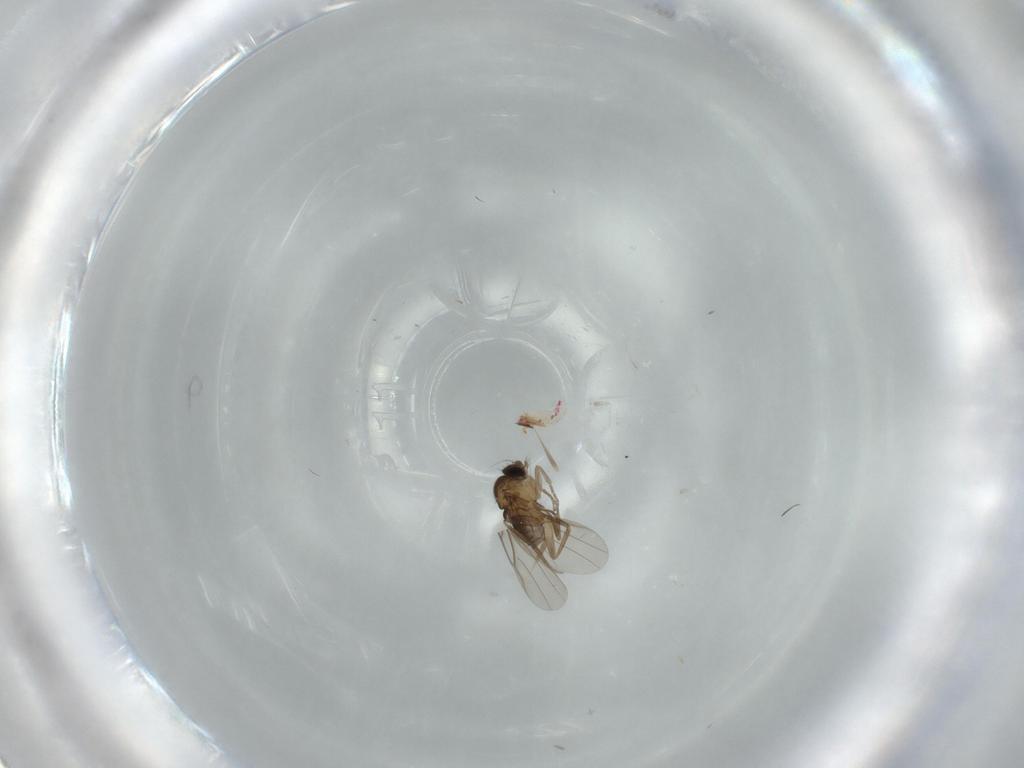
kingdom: Animalia
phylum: Arthropoda
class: Insecta
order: Diptera
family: Phoridae
